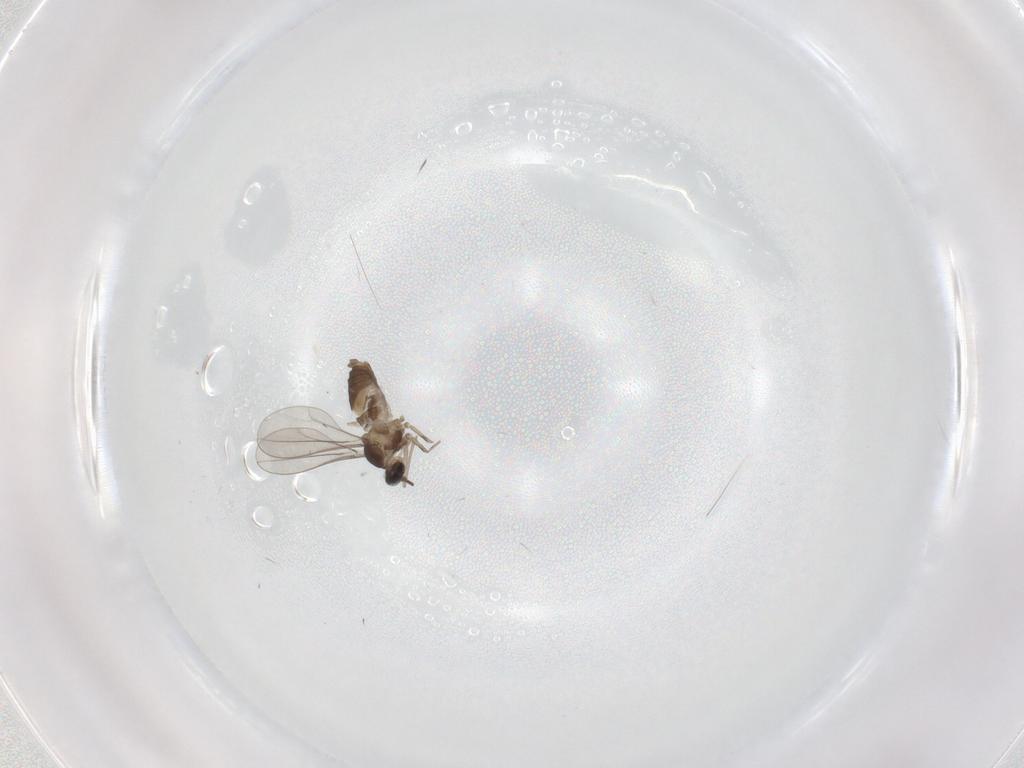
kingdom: Animalia
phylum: Arthropoda
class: Insecta
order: Diptera
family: Cecidomyiidae
